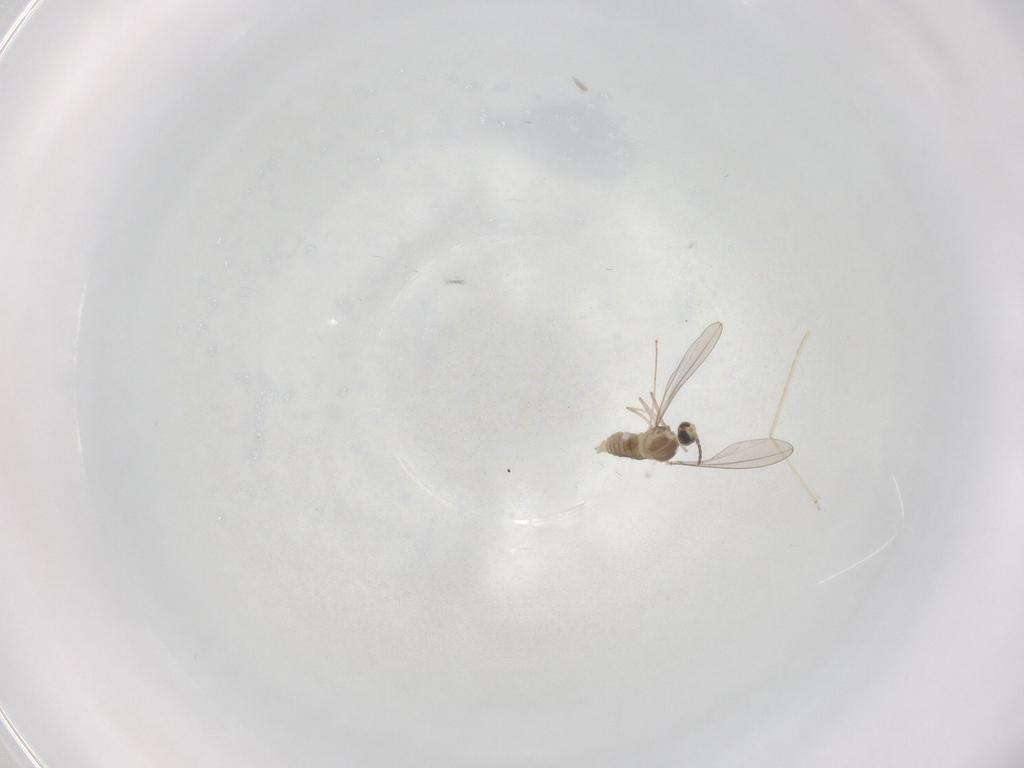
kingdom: Animalia
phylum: Arthropoda
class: Insecta
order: Diptera
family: Cecidomyiidae
